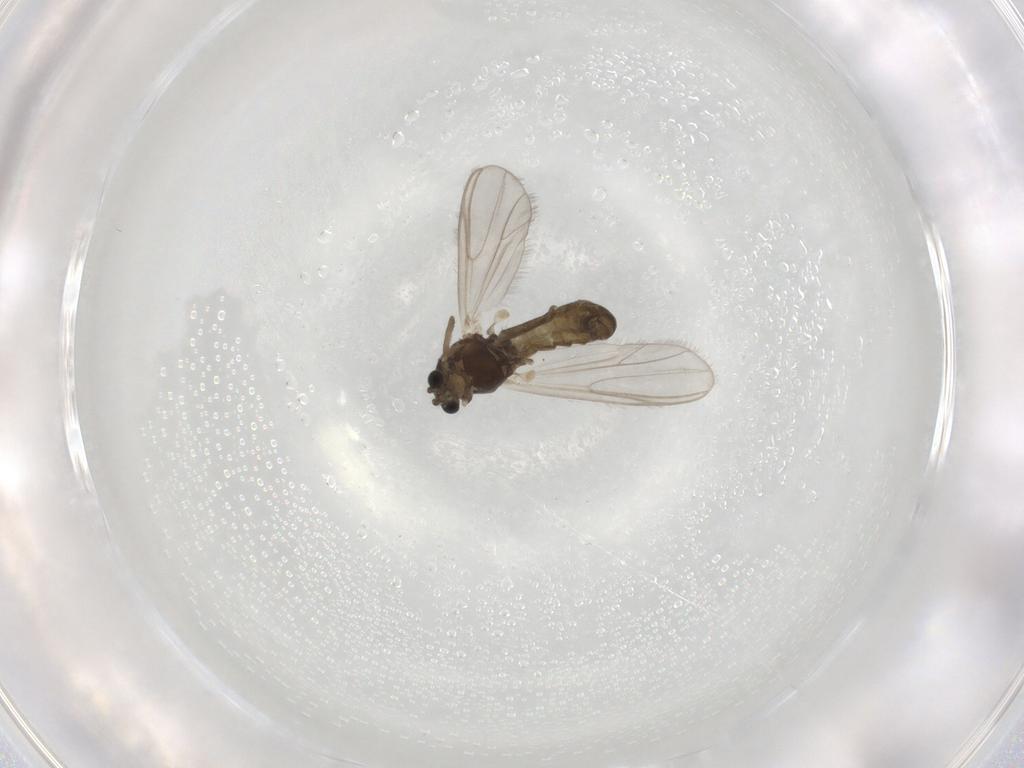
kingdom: Animalia
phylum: Arthropoda
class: Insecta
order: Diptera
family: Chironomidae
